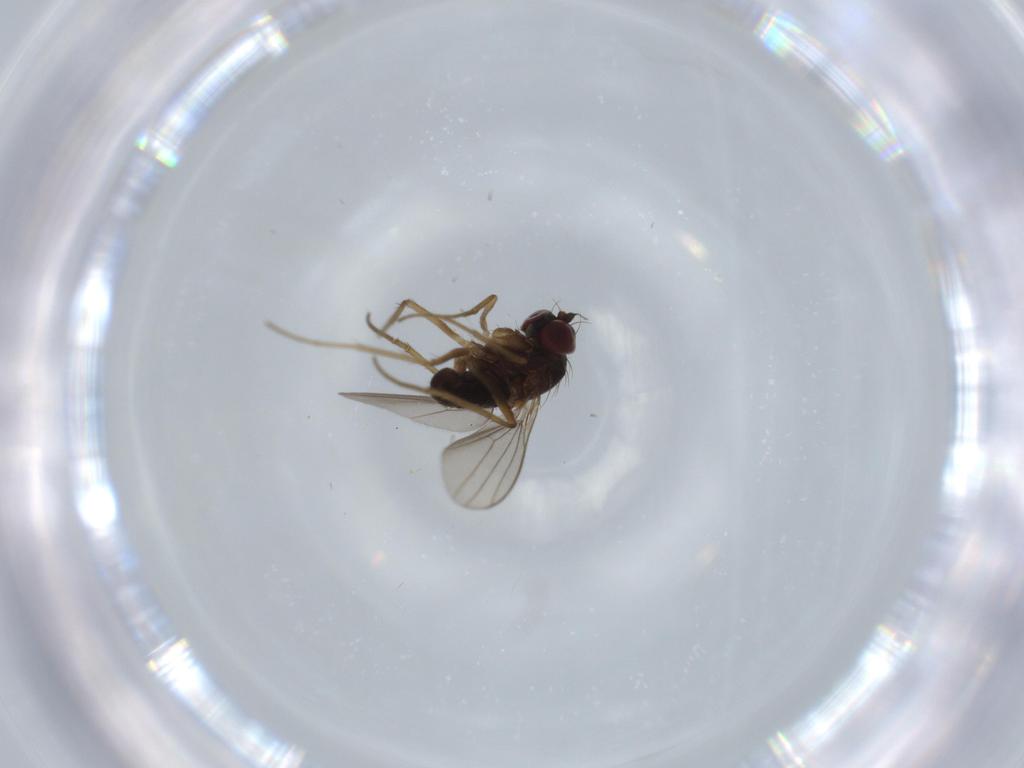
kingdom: Animalia
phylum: Arthropoda
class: Insecta
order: Diptera
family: Dolichopodidae
